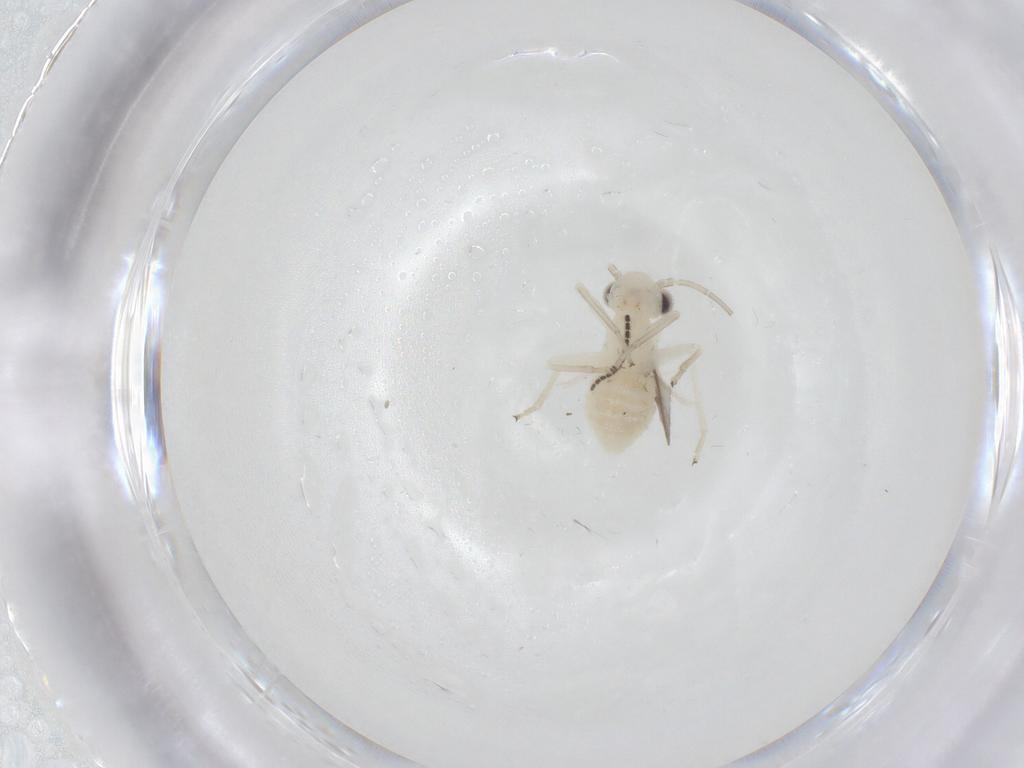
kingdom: Animalia
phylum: Arthropoda
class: Insecta
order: Psocodea
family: Caeciliusidae
